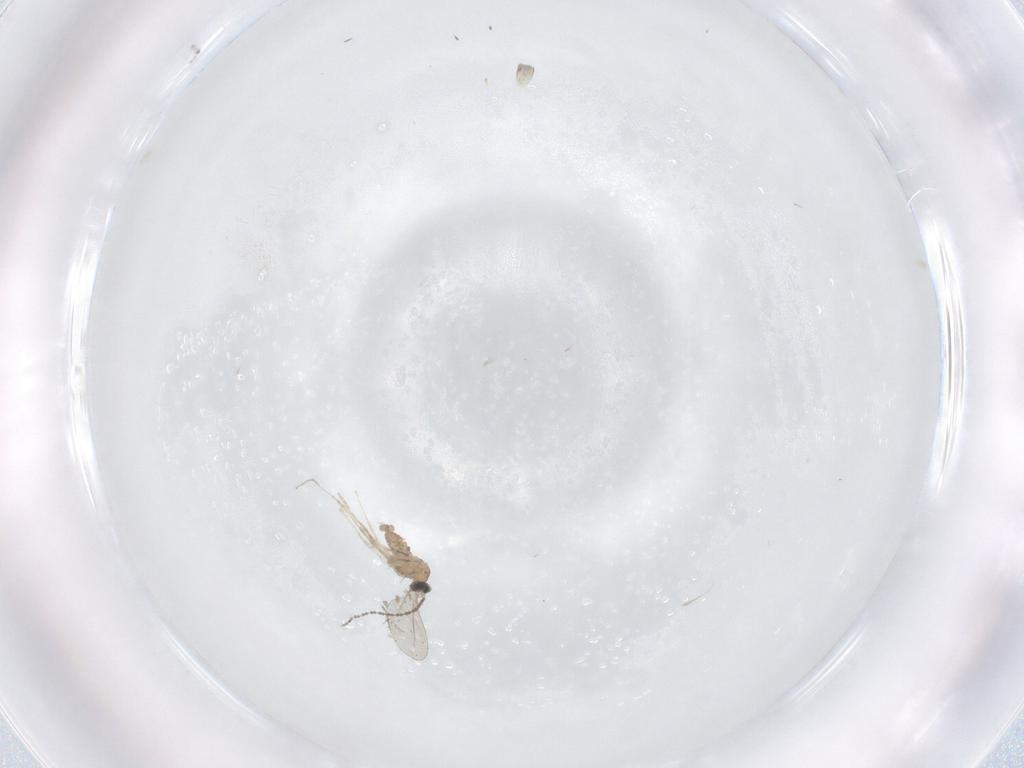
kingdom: Animalia
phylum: Arthropoda
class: Insecta
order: Diptera
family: Cecidomyiidae
